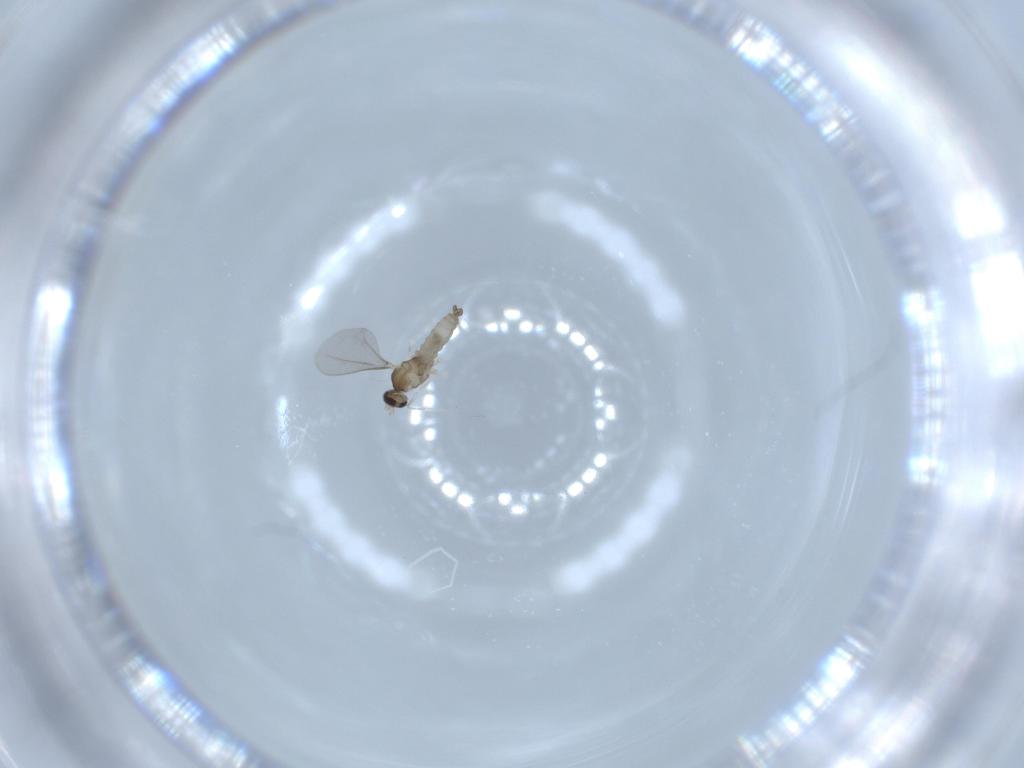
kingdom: Animalia
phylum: Arthropoda
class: Insecta
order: Diptera
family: Cecidomyiidae
